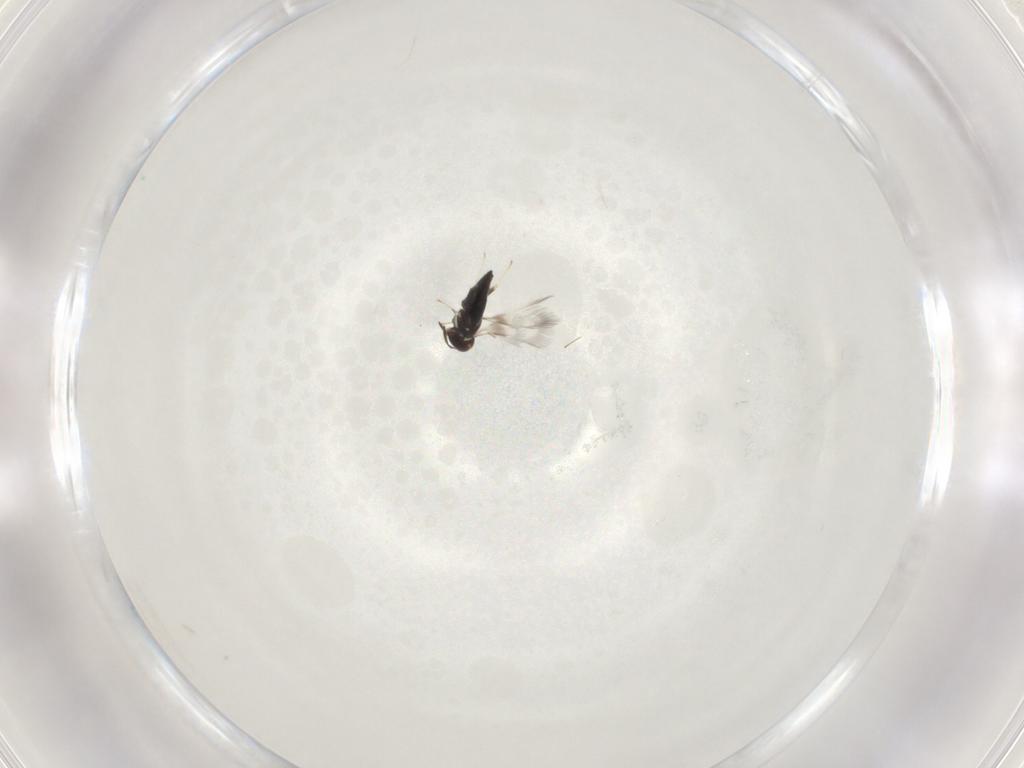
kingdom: Animalia
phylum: Arthropoda
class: Insecta
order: Hymenoptera
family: Signiphoridae
